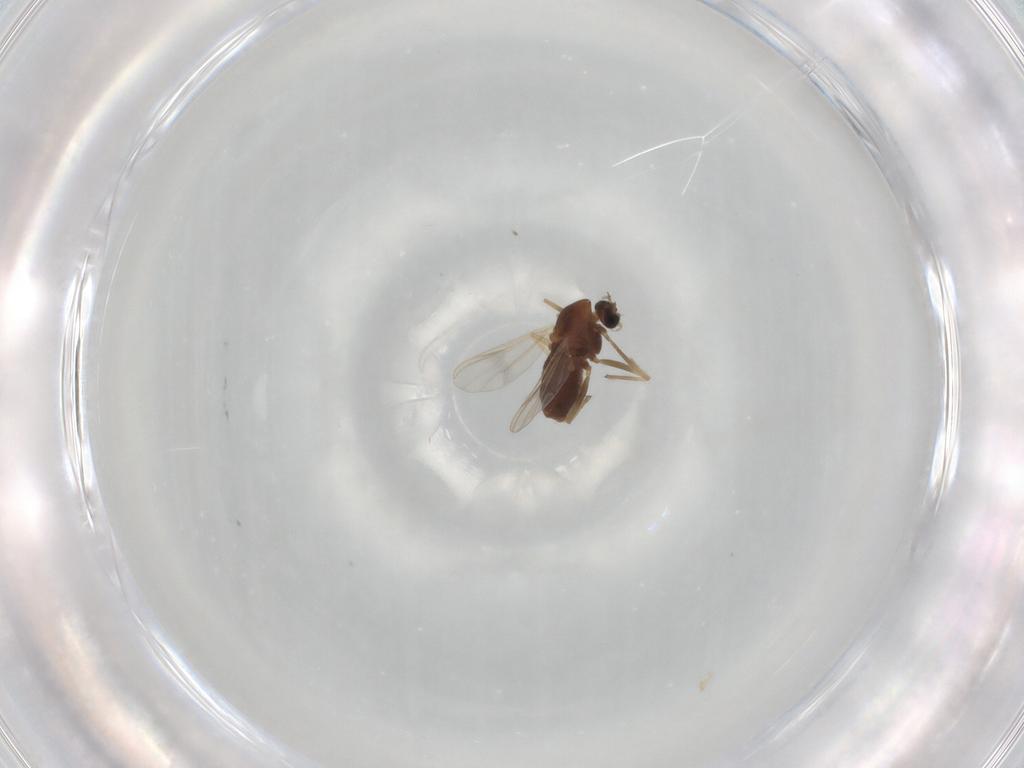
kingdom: Animalia
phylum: Arthropoda
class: Insecta
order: Diptera
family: Chironomidae
